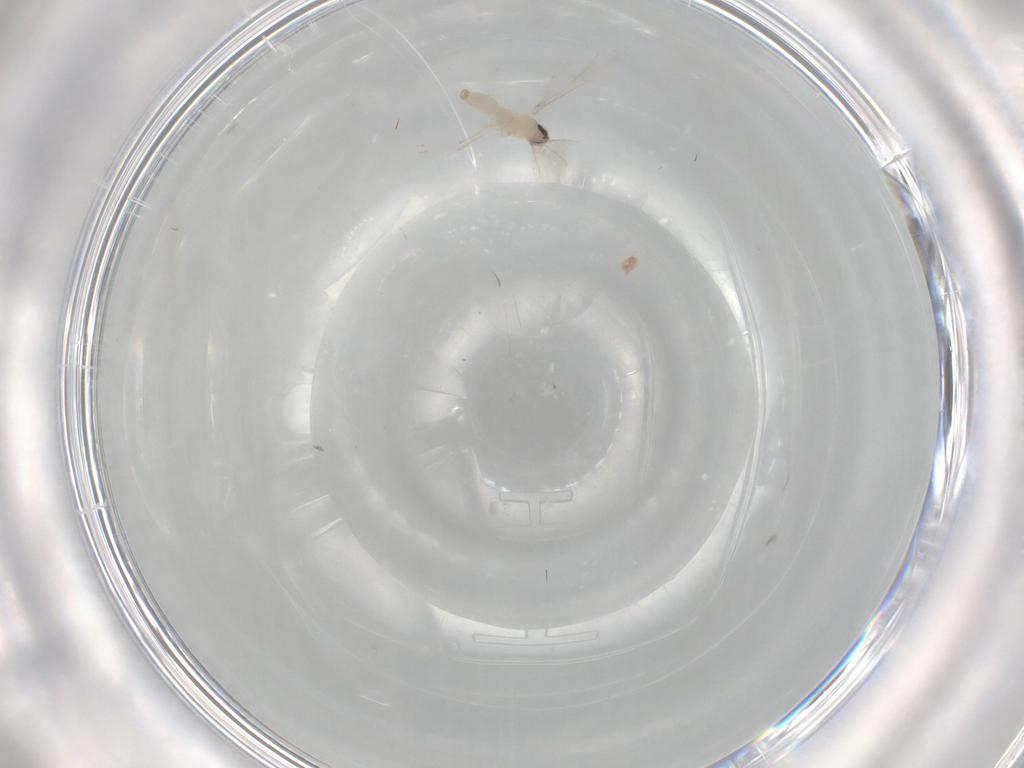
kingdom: Animalia
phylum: Arthropoda
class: Insecta
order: Diptera
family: Cecidomyiidae
